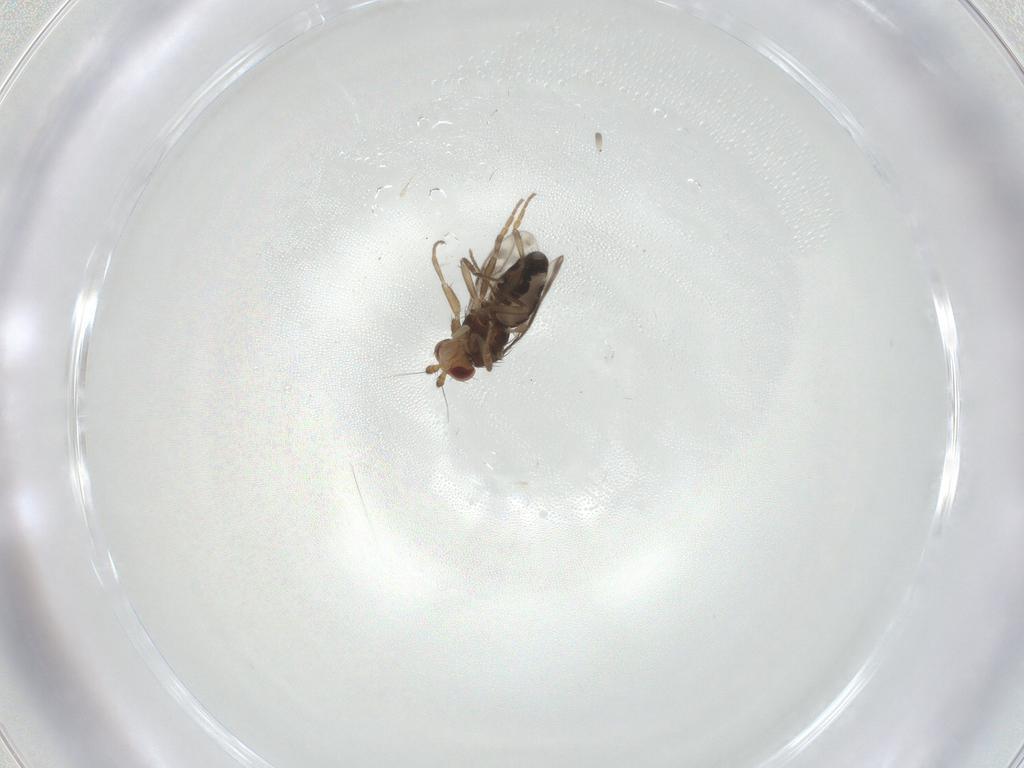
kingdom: Animalia
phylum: Arthropoda
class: Insecta
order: Diptera
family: Sphaeroceridae
